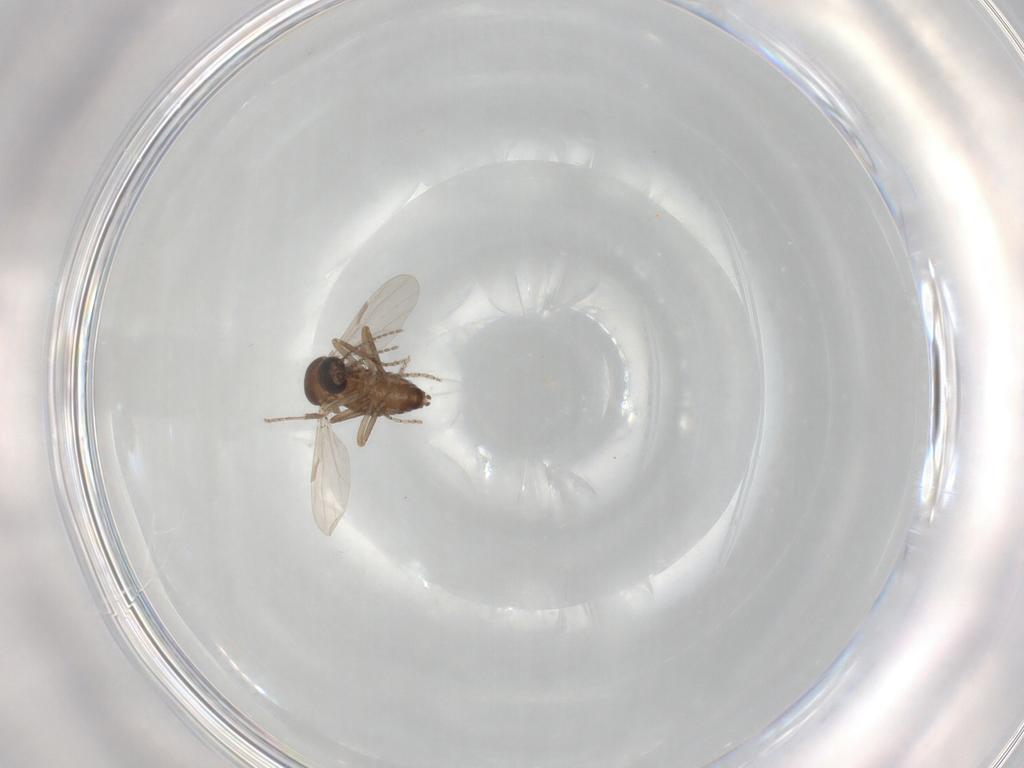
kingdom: Animalia
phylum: Arthropoda
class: Insecta
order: Diptera
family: Ceratopogonidae
